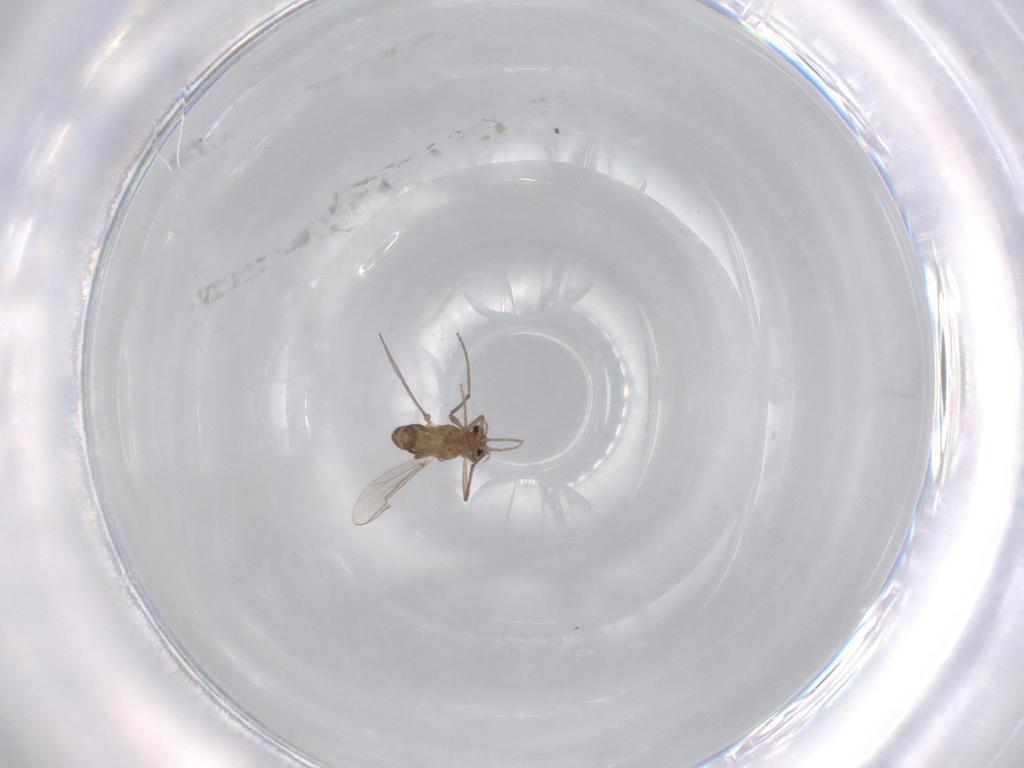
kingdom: Animalia
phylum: Arthropoda
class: Insecta
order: Diptera
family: Chironomidae
